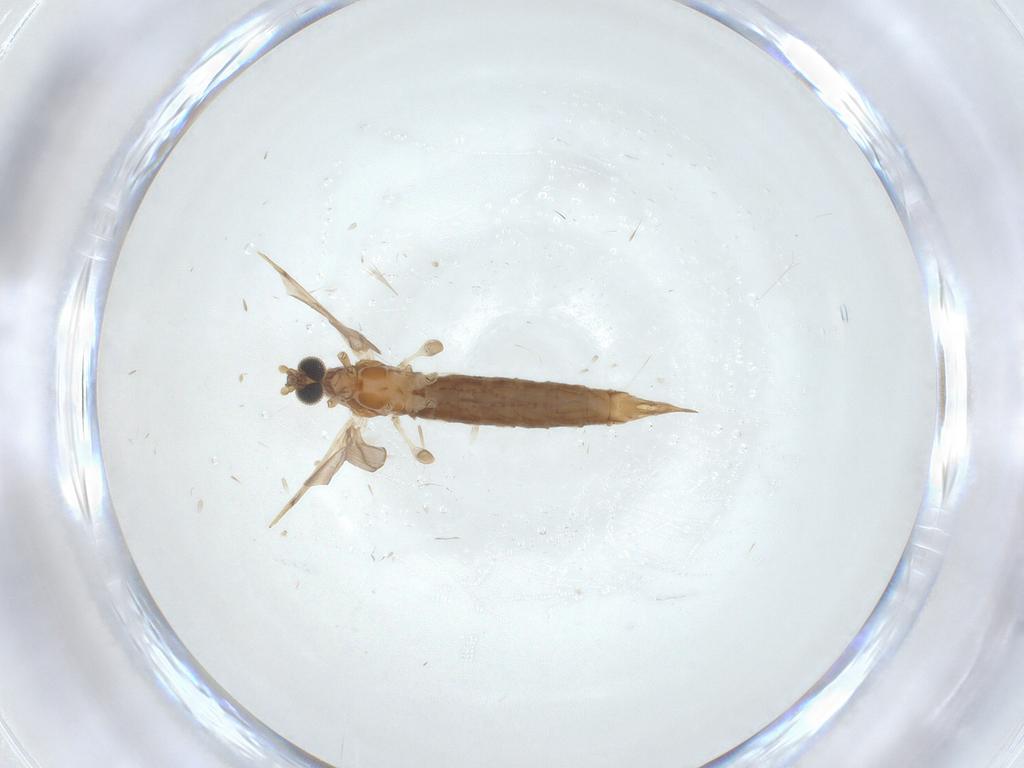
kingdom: Animalia
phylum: Arthropoda
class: Insecta
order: Diptera
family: Limoniidae
